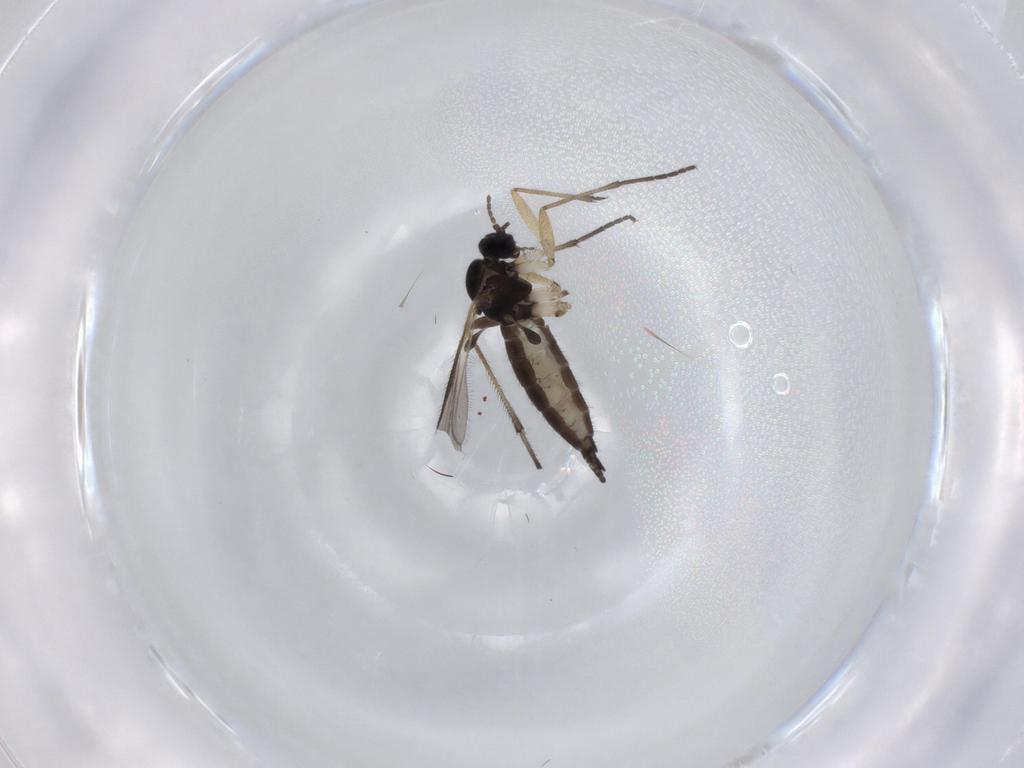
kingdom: Animalia
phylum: Arthropoda
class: Insecta
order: Diptera
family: Sciaridae
